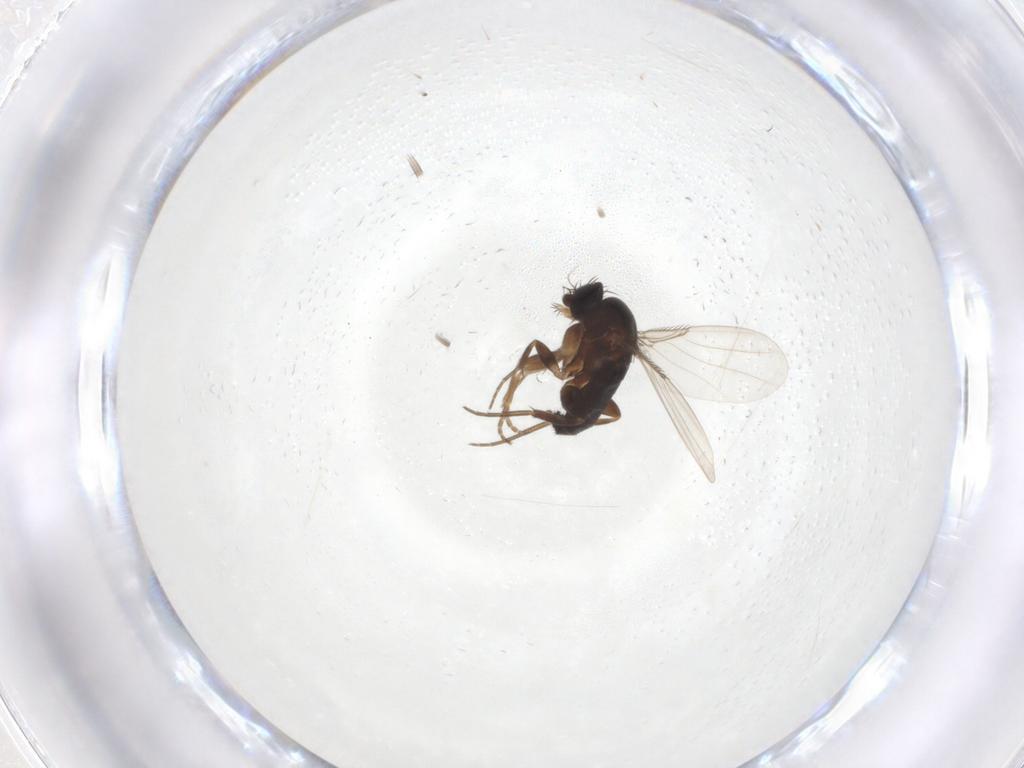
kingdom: Animalia
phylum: Arthropoda
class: Insecta
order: Diptera
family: Phoridae
